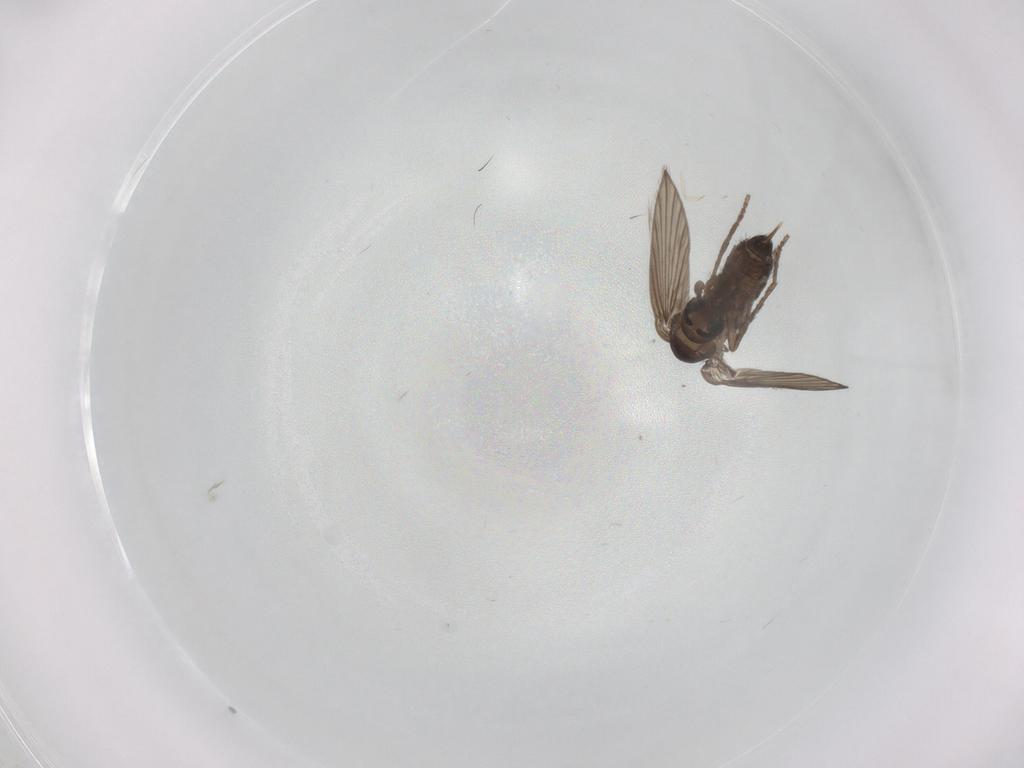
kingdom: Animalia
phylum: Arthropoda
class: Insecta
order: Diptera
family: Psychodidae
